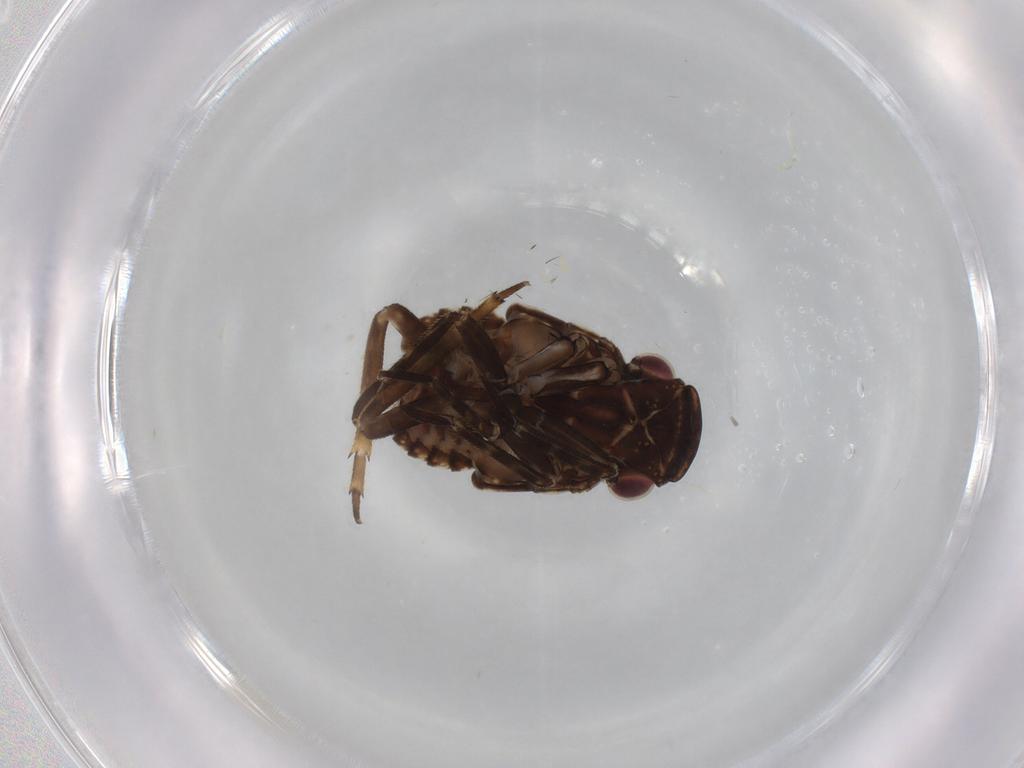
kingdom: Animalia
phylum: Arthropoda
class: Insecta
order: Hemiptera
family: Fulgoridae
